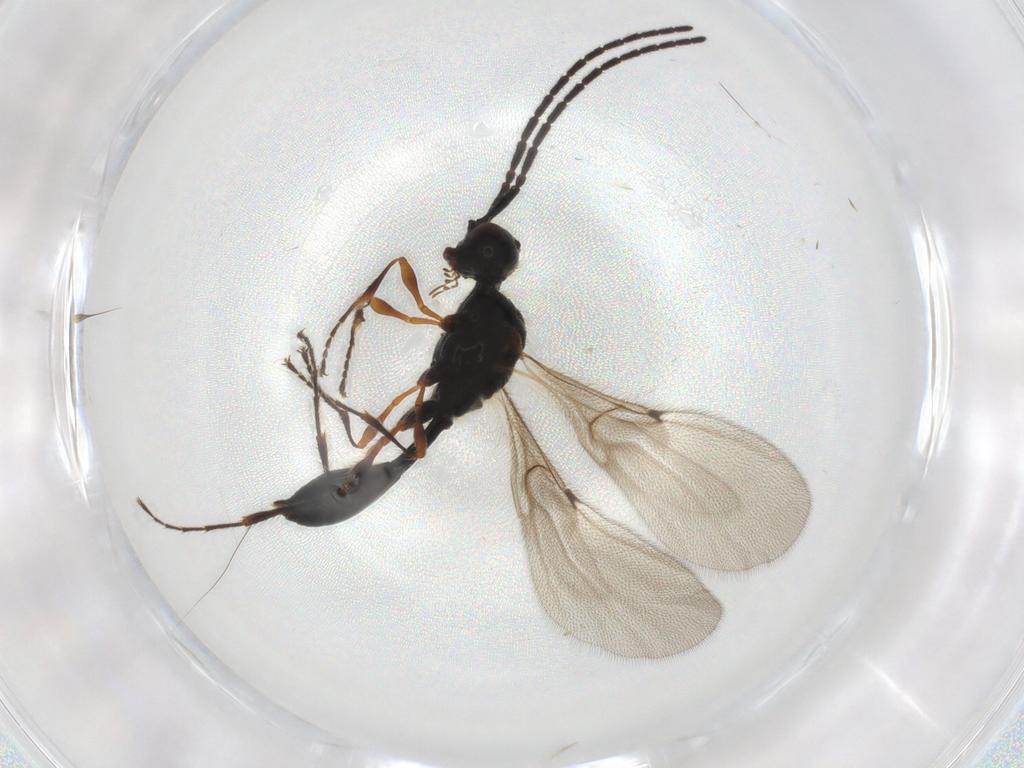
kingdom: Animalia
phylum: Arthropoda
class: Insecta
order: Hymenoptera
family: Diapriidae
